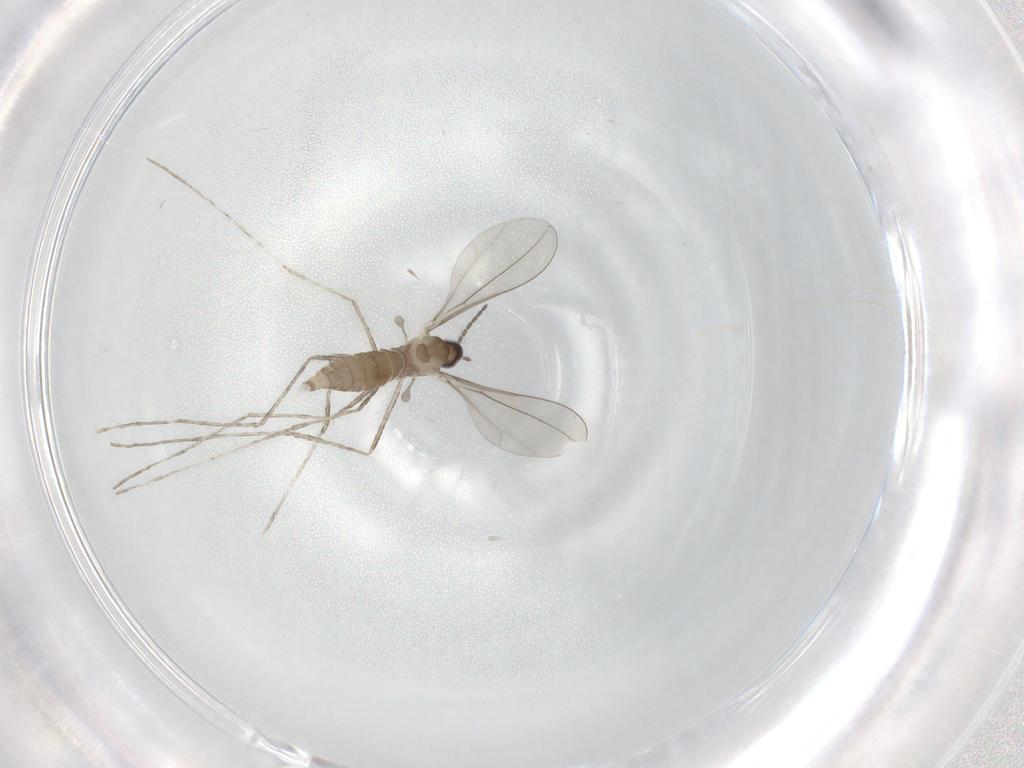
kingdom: Animalia
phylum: Arthropoda
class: Insecta
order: Diptera
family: Cecidomyiidae
